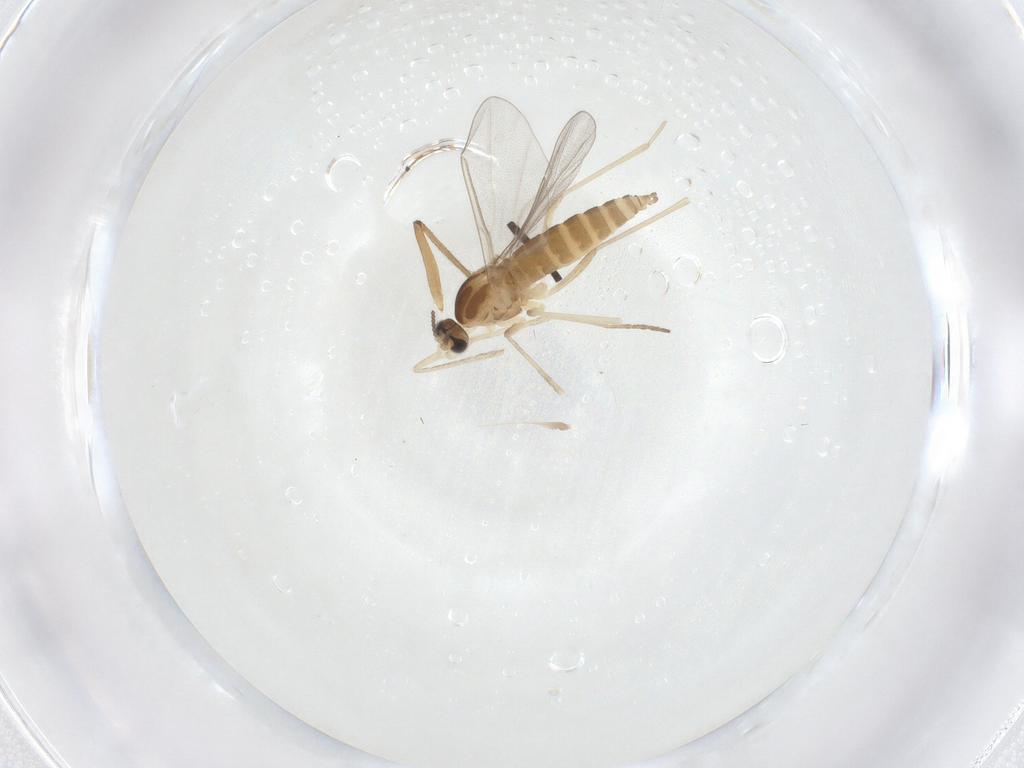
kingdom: Animalia
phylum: Arthropoda
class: Insecta
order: Diptera
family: Cecidomyiidae
